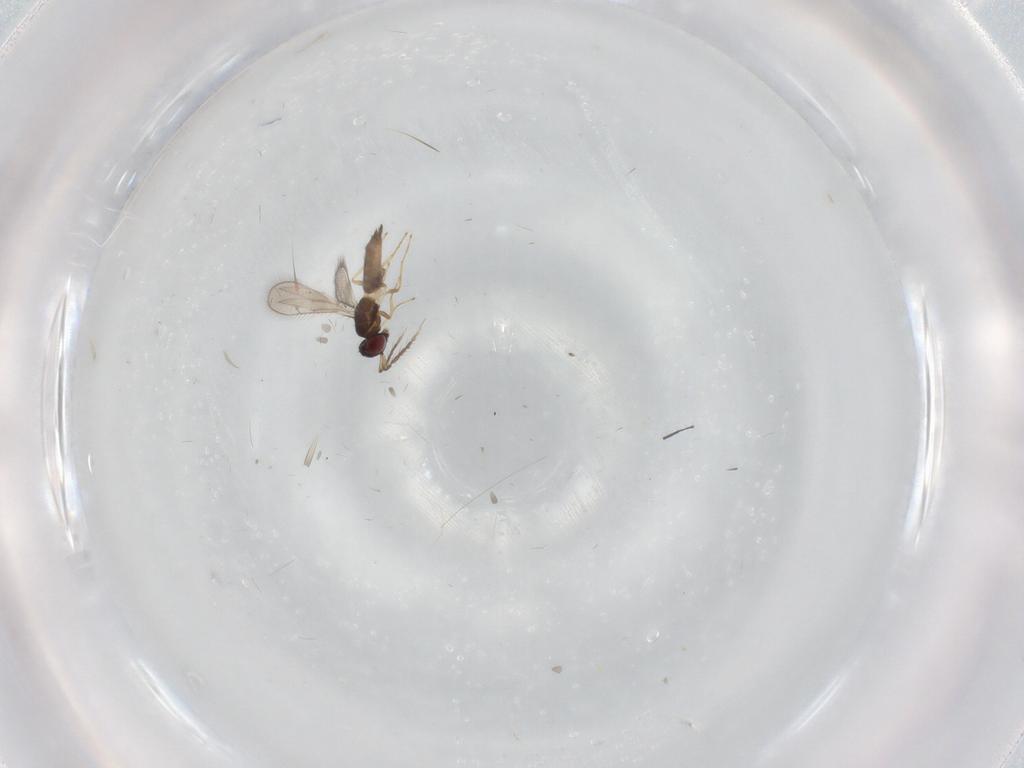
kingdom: Animalia
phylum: Arthropoda
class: Insecta
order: Hymenoptera
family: Eulophidae
